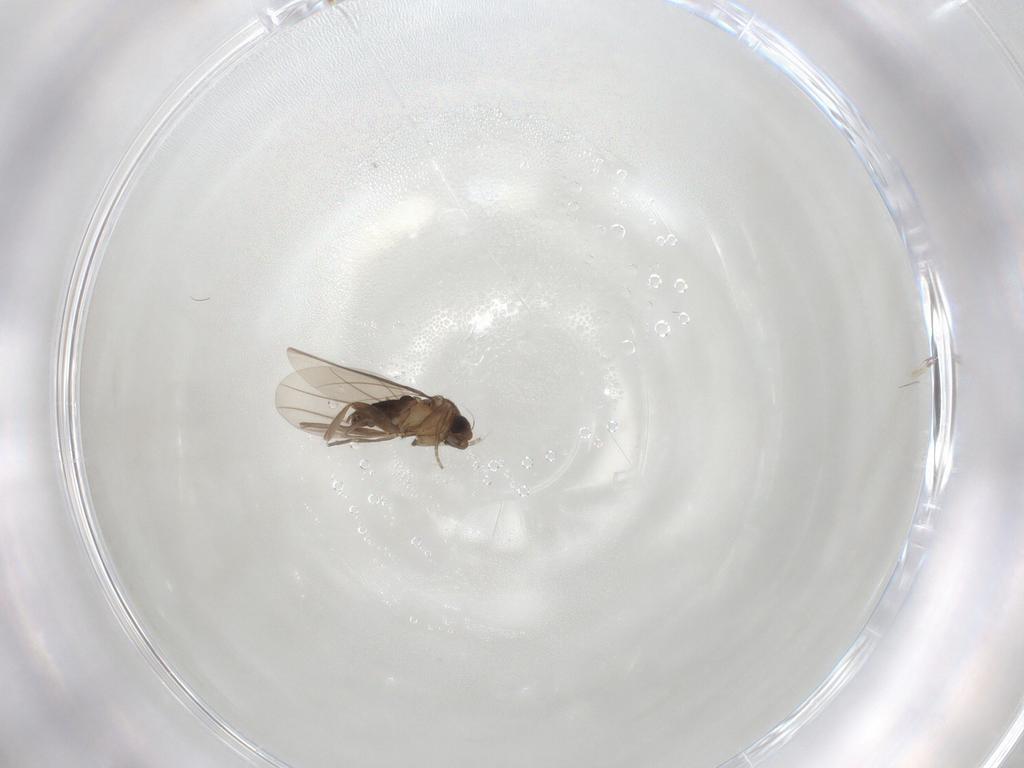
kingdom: Animalia
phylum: Arthropoda
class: Insecta
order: Diptera
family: Phoridae
